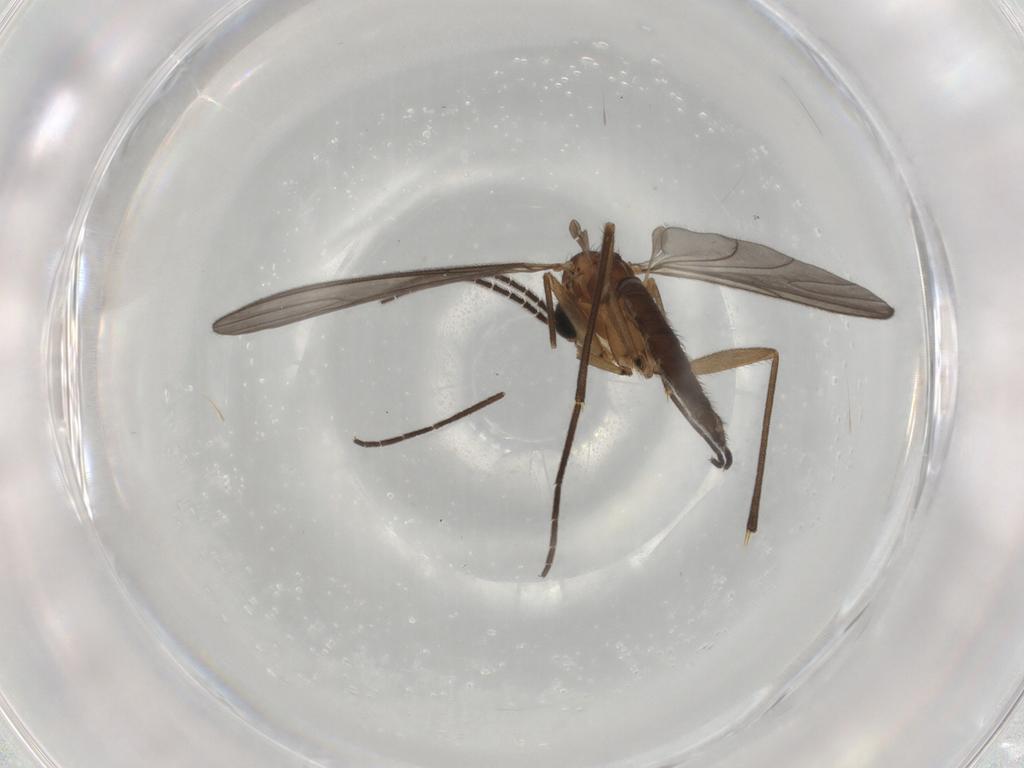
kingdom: Animalia
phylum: Arthropoda
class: Insecta
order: Diptera
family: Sciaridae
